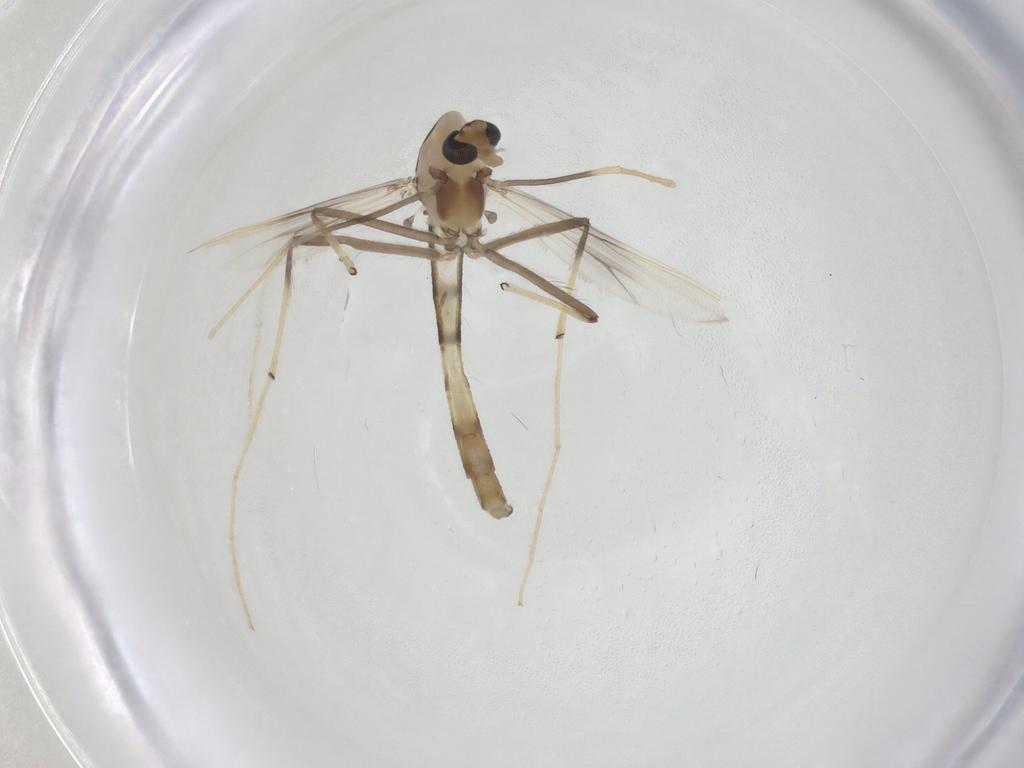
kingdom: Animalia
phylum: Arthropoda
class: Insecta
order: Diptera
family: Chironomidae
